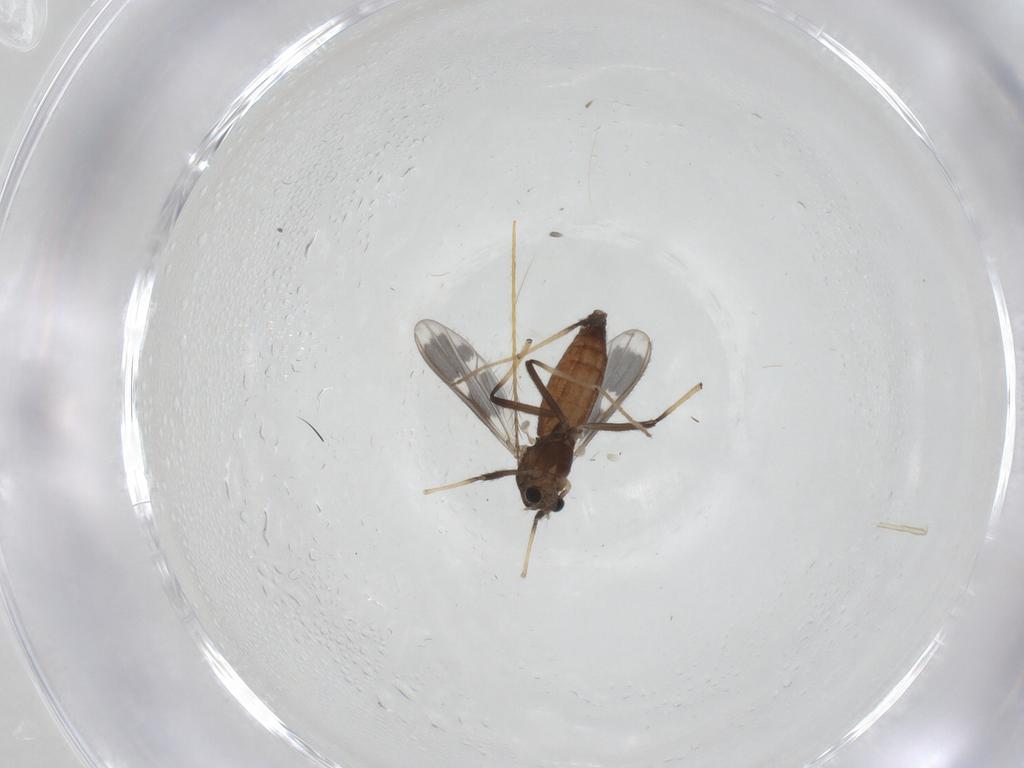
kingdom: Animalia
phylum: Arthropoda
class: Insecta
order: Diptera
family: Chironomidae
